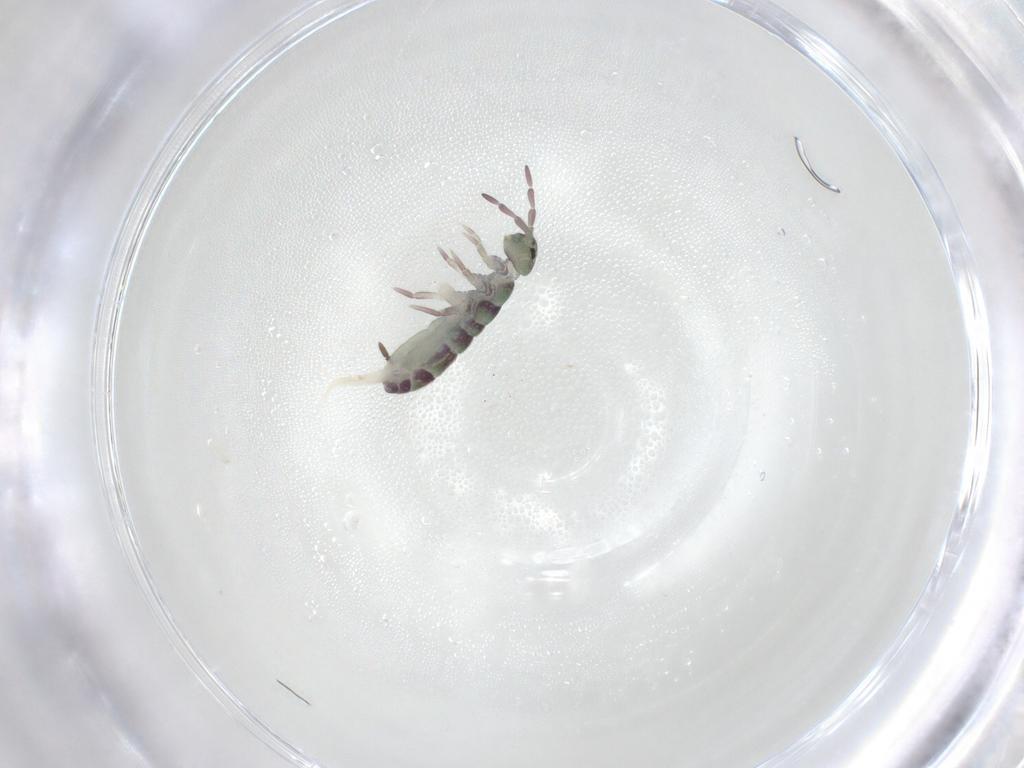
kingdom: Animalia
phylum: Arthropoda
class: Collembola
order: Entomobryomorpha
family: Isotomidae
